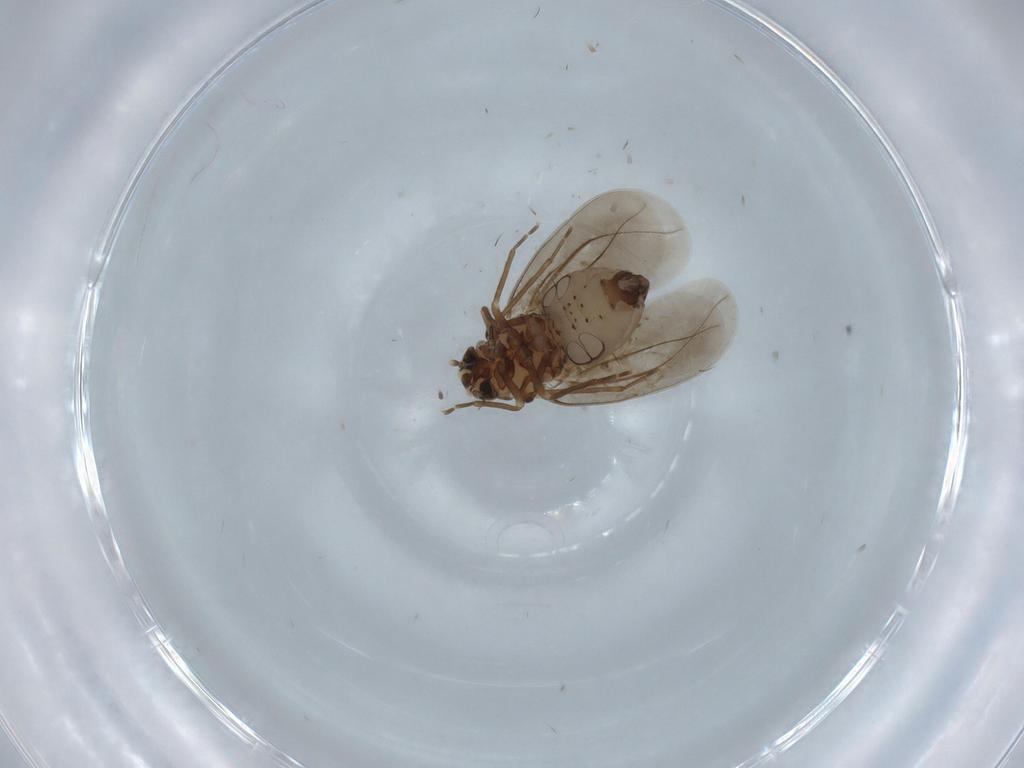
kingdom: Animalia
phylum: Arthropoda
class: Insecta
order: Hemiptera
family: Aleyrodidae
